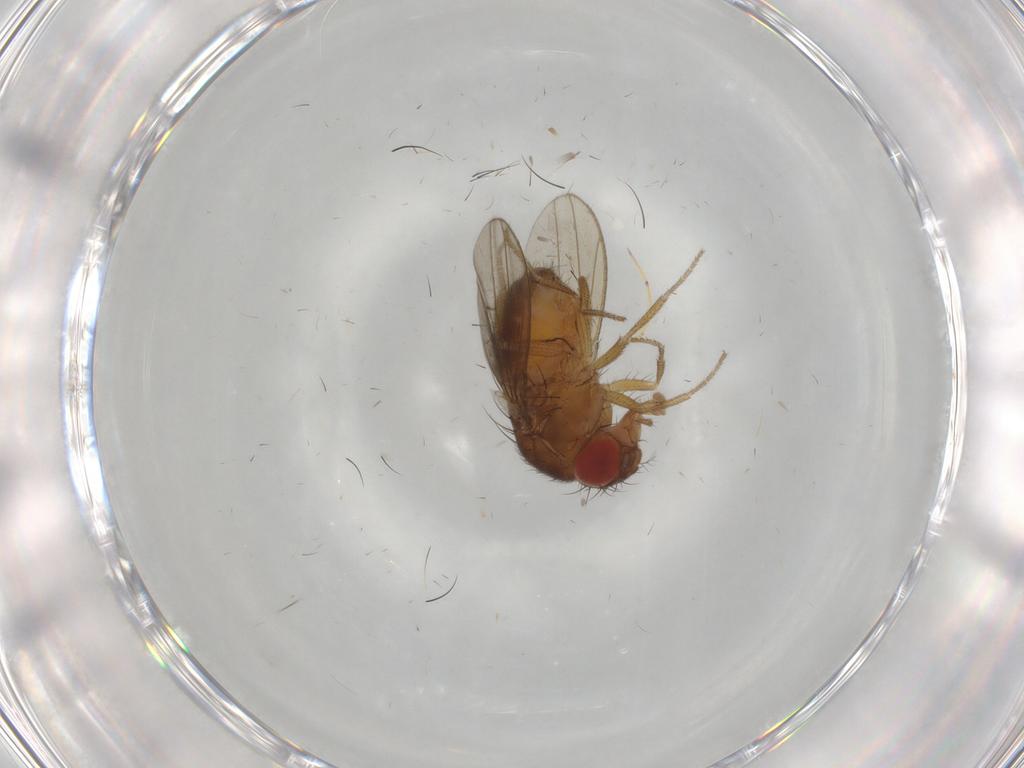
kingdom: Animalia
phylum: Arthropoda
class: Insecta
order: Diptera
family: Drosophilidae
